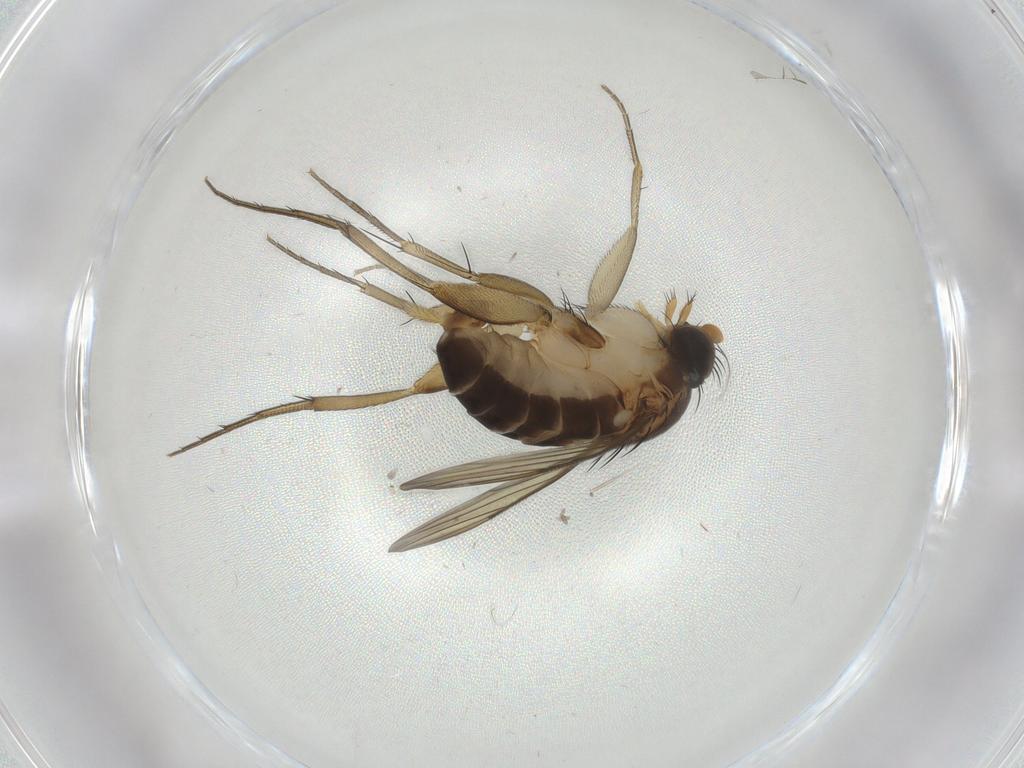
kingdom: Animalia
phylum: Arthropoda
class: Insecta
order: Diptera
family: Phoridae
